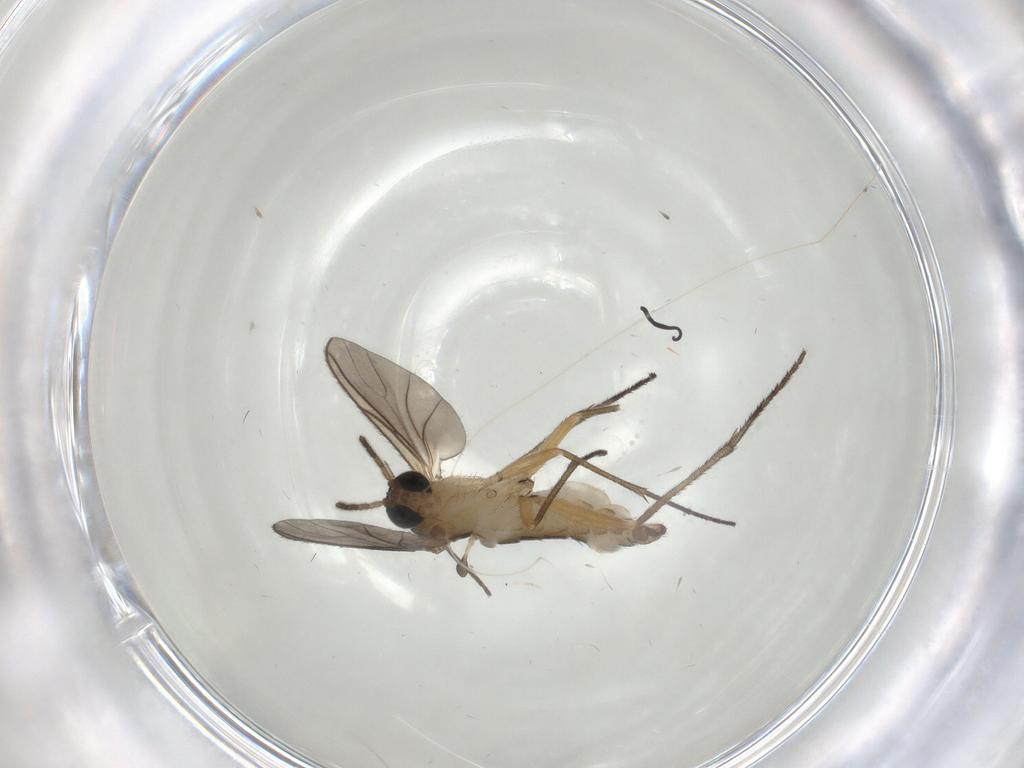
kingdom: Animalia
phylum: Arthropoda
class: Insecta
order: Diptera
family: Sciaridae
